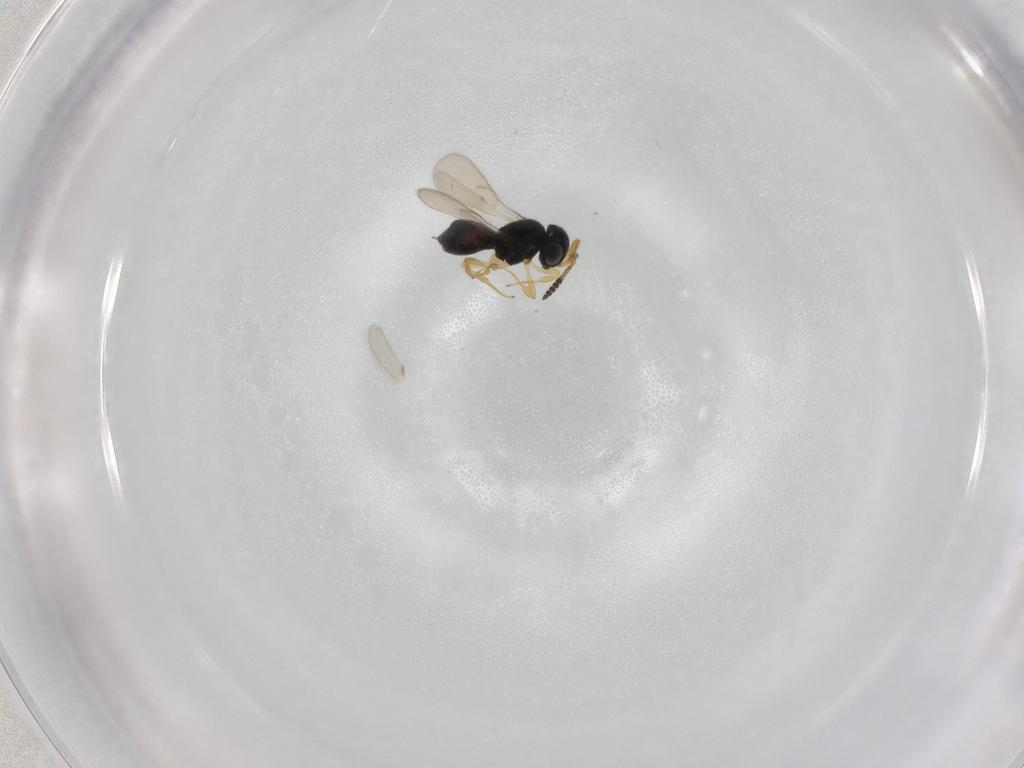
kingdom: Animalia
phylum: Arthropoda
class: Insecta
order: Hymenoptera
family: Scelionidae
